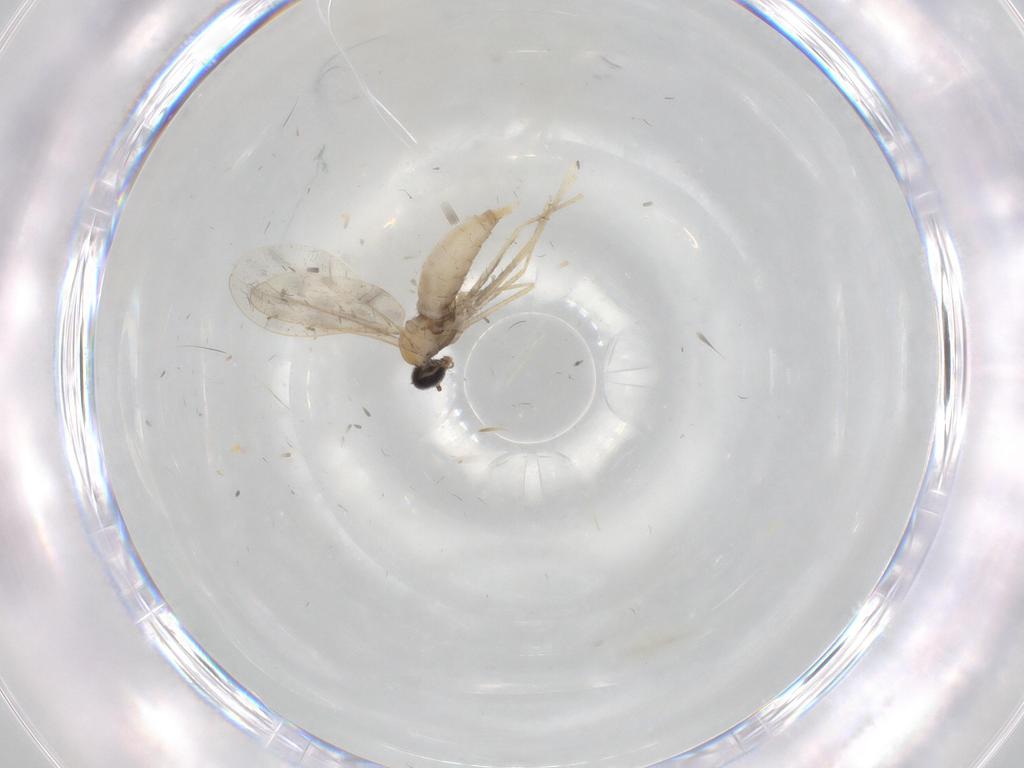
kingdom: Animalia
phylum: Arthropoda
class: Insecta
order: Diptera
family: Cecidomyiidae
